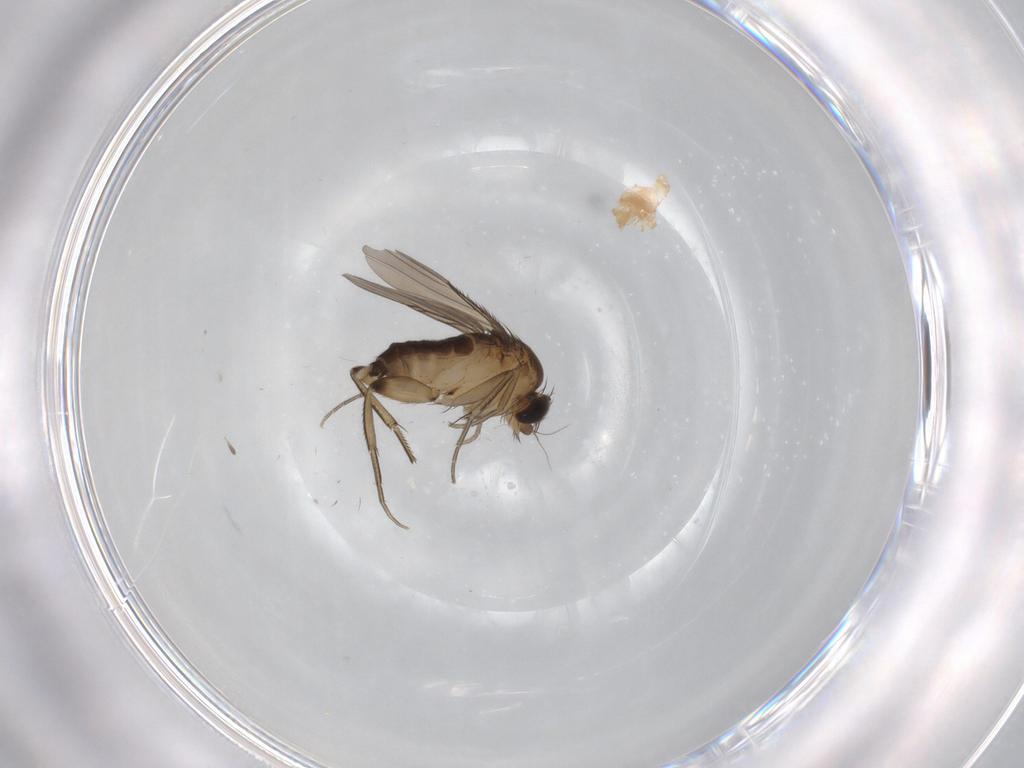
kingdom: Animalia
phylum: Arthropoda
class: Insecta
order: Diptera
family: Phoridae
